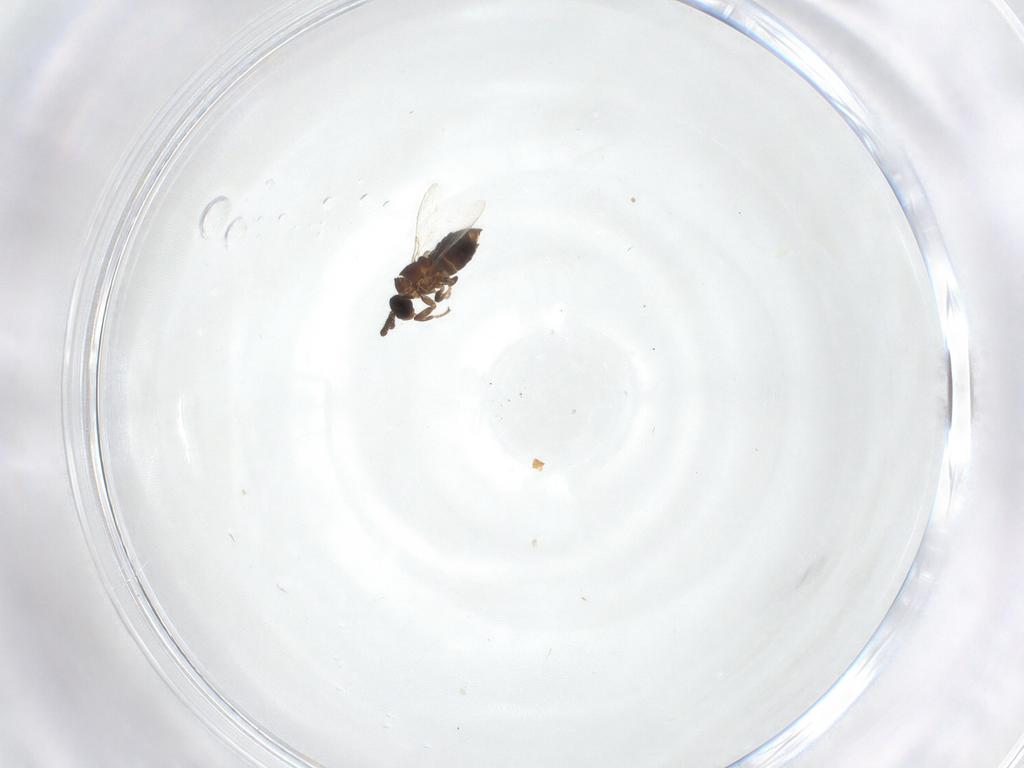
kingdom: Animalia
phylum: Arthropoda
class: Insecta
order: Diptera
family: Scatopsidae
